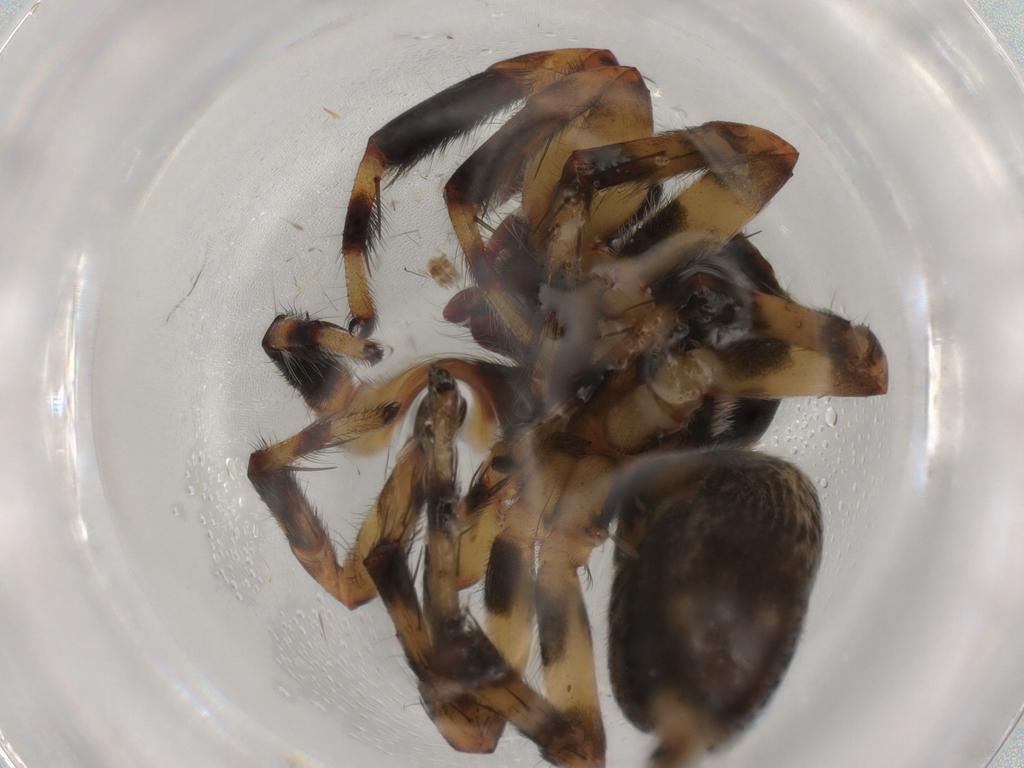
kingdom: Animalia
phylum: Arthropoda
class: Arachnida
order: Araneae
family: Salticidae
